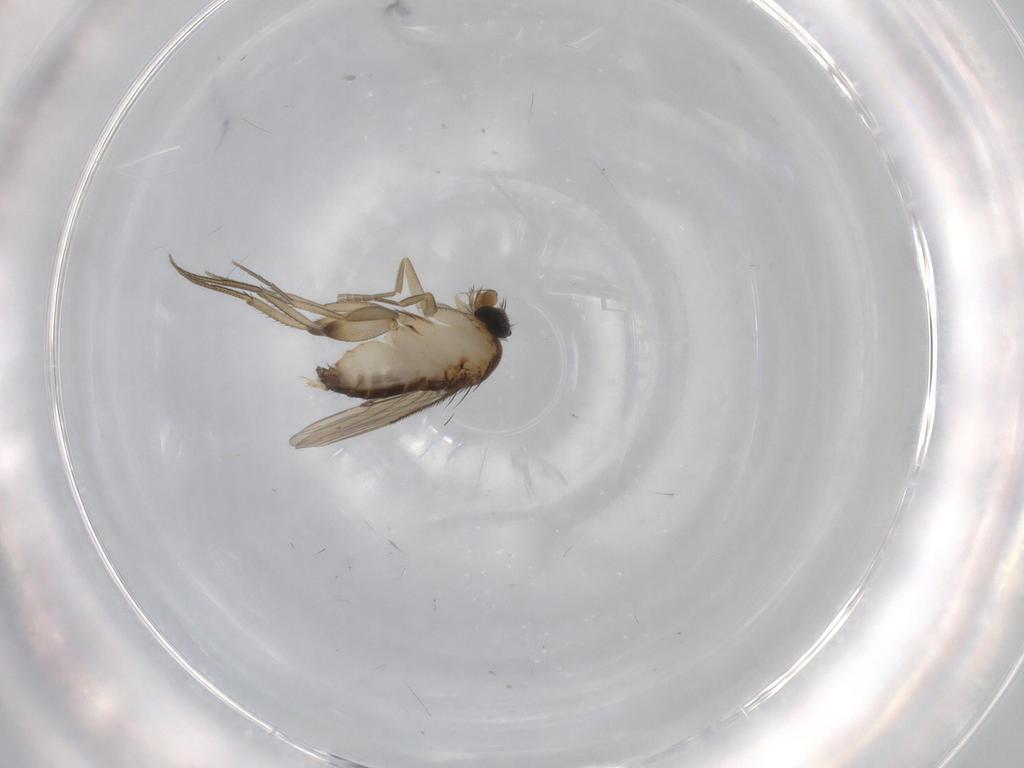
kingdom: Animalia
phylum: Arthropoda
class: Insecta
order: Diptera
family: Phoridae
